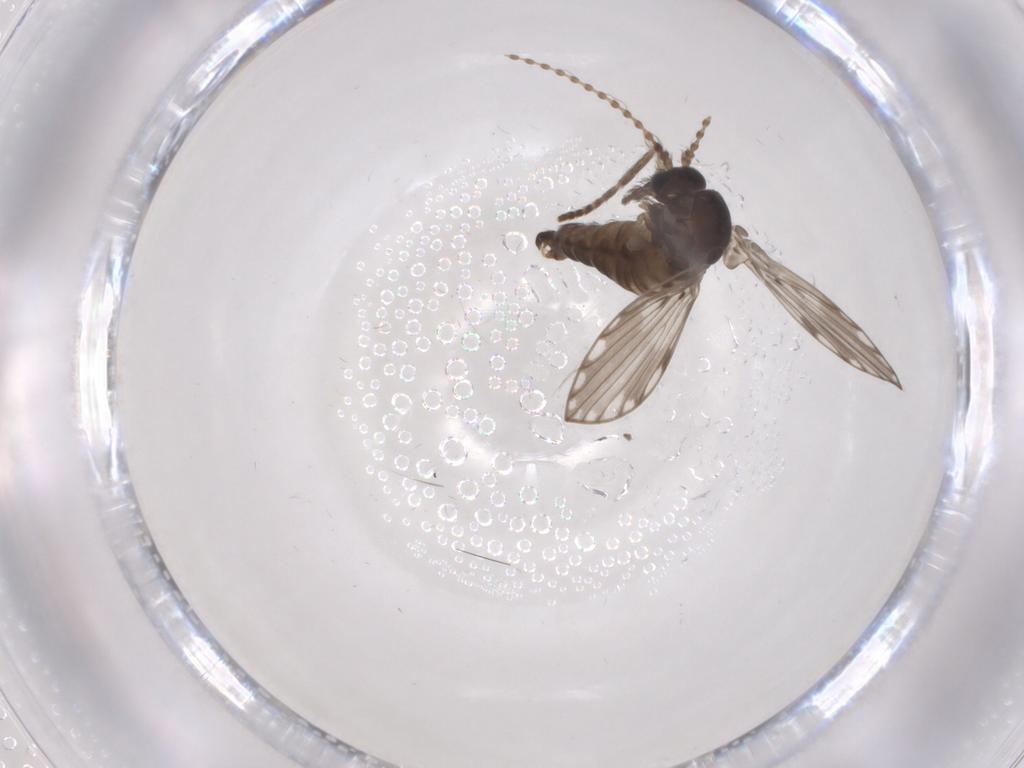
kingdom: Animalia
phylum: Arthropoda
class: Insecta
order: Diptera
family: Psychodidae
